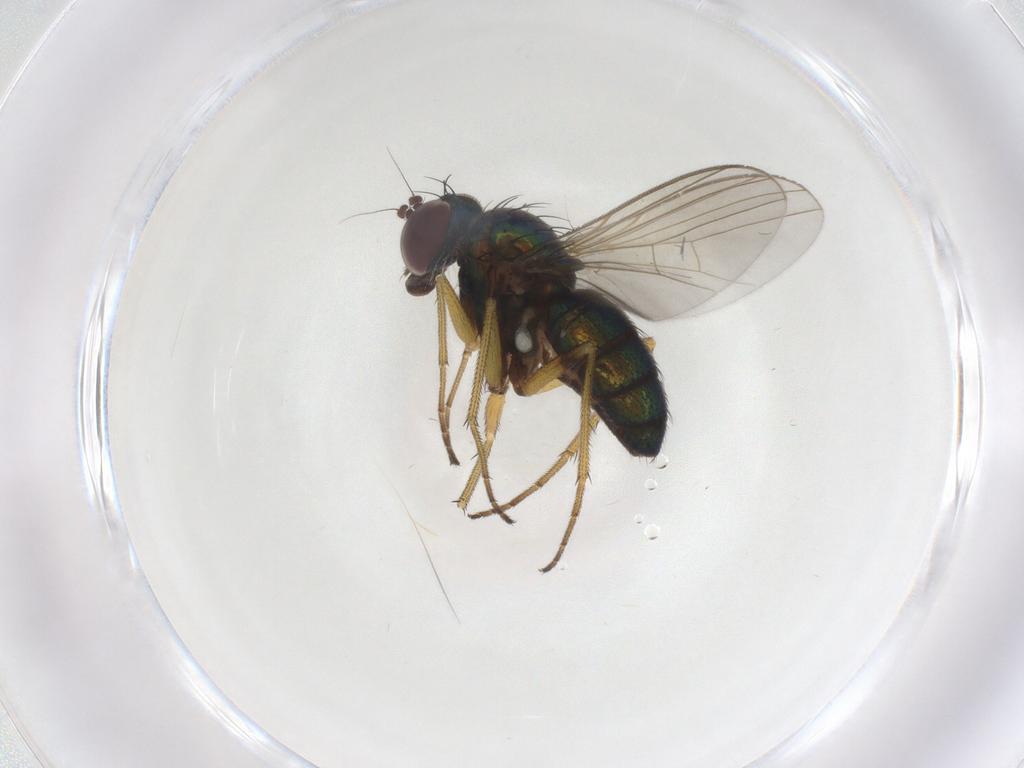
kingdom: Animalia
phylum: Arthropoda
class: Insecta
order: Diptera
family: Dolichopodidae
